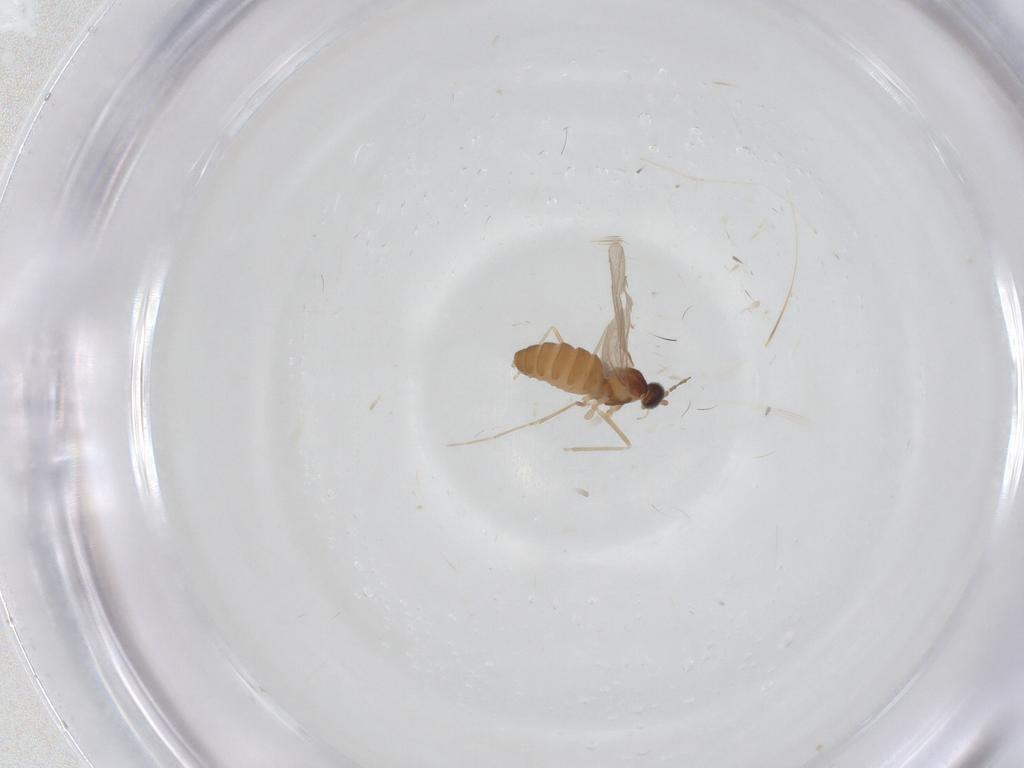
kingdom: Animalia
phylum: Arthropoda
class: Insecta
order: Diptera
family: Cecidomyiidae
